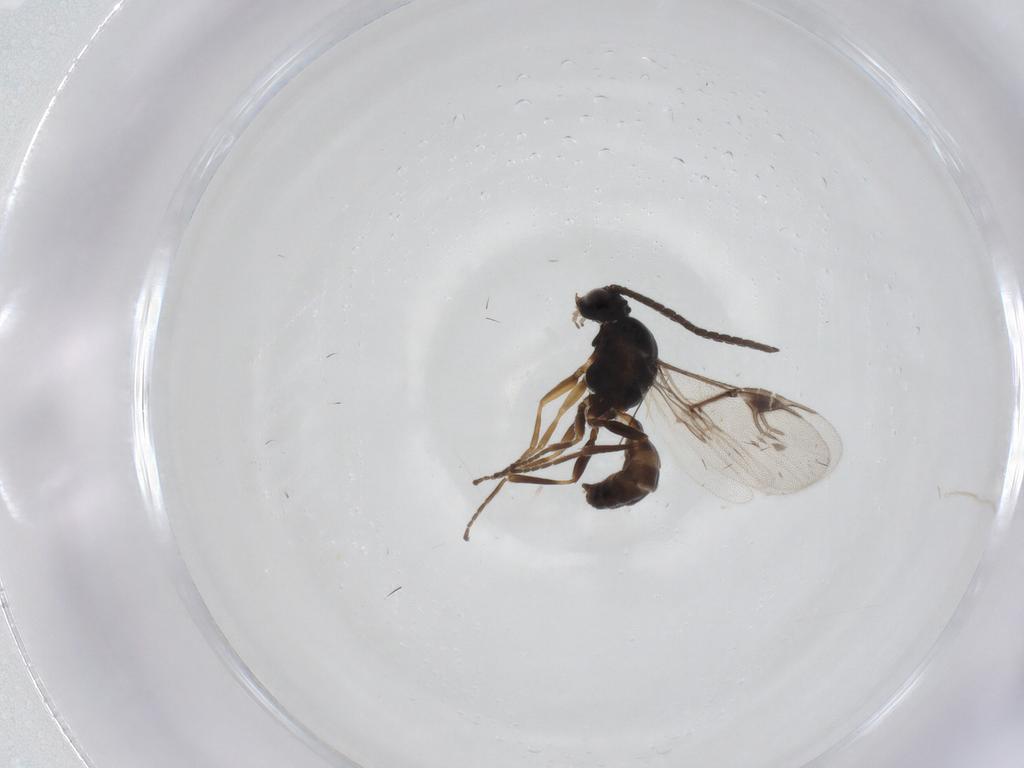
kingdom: Animalia
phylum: Arthropoda
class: Insecta
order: Hymenoptera
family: Braconidae
